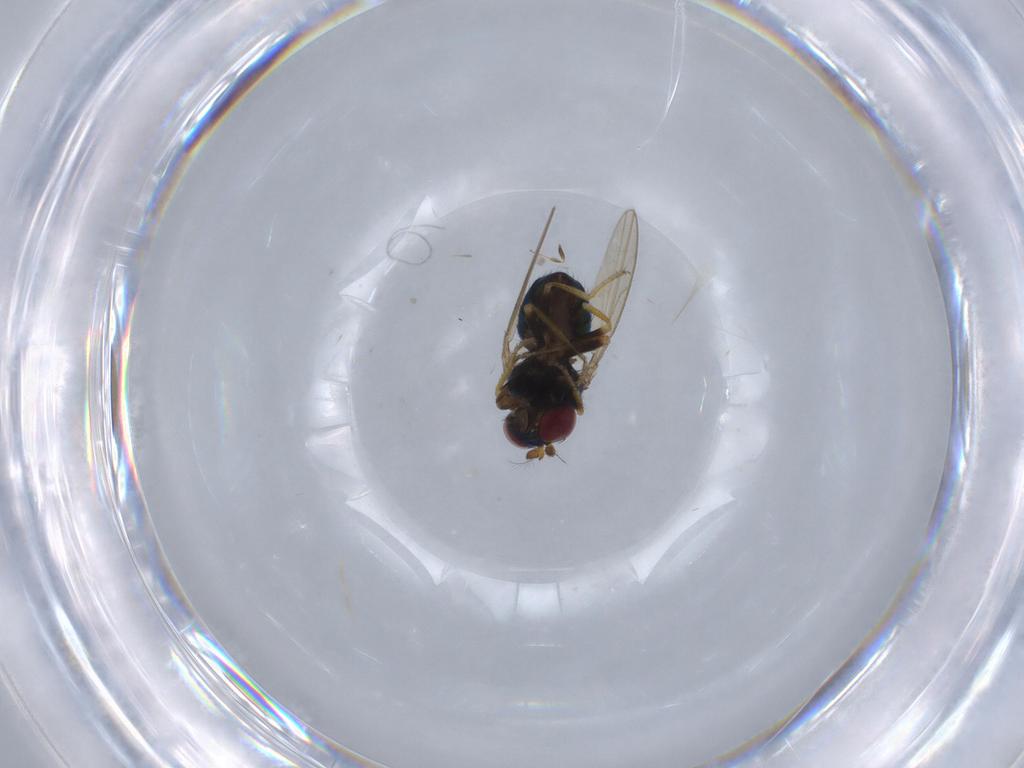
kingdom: Animalia
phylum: Arthropoda
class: Insecta
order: Diptera
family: Ephydridae
